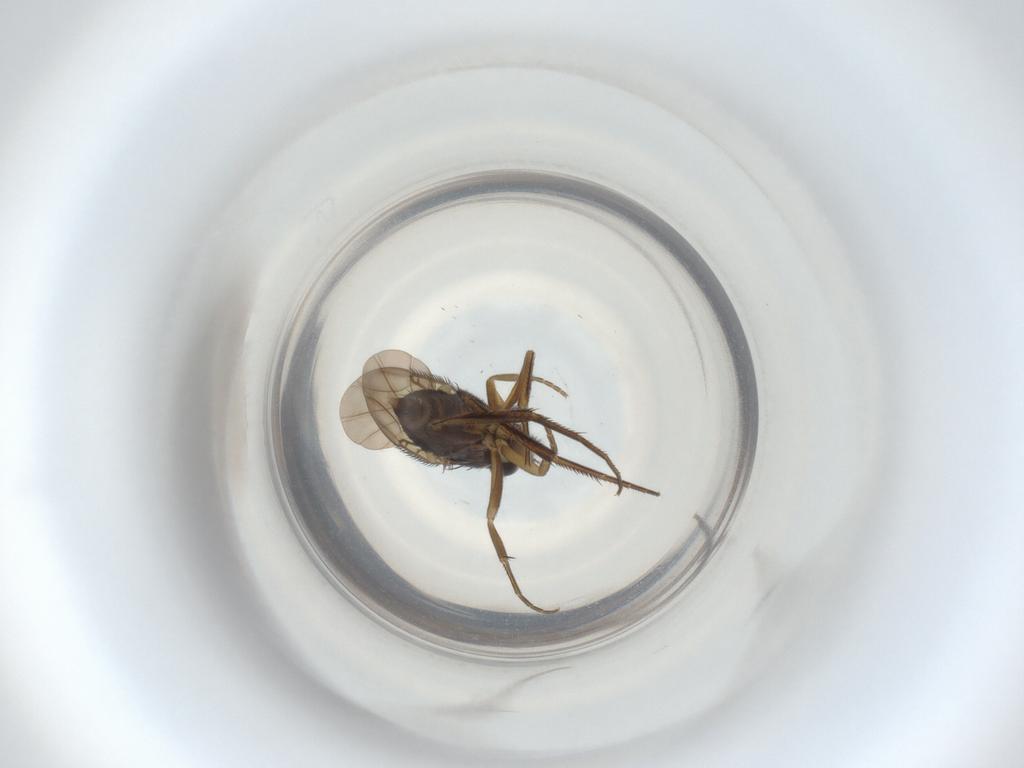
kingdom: Animalia
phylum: Arthropoda
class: Insecta
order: Diptera
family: Phoridae
